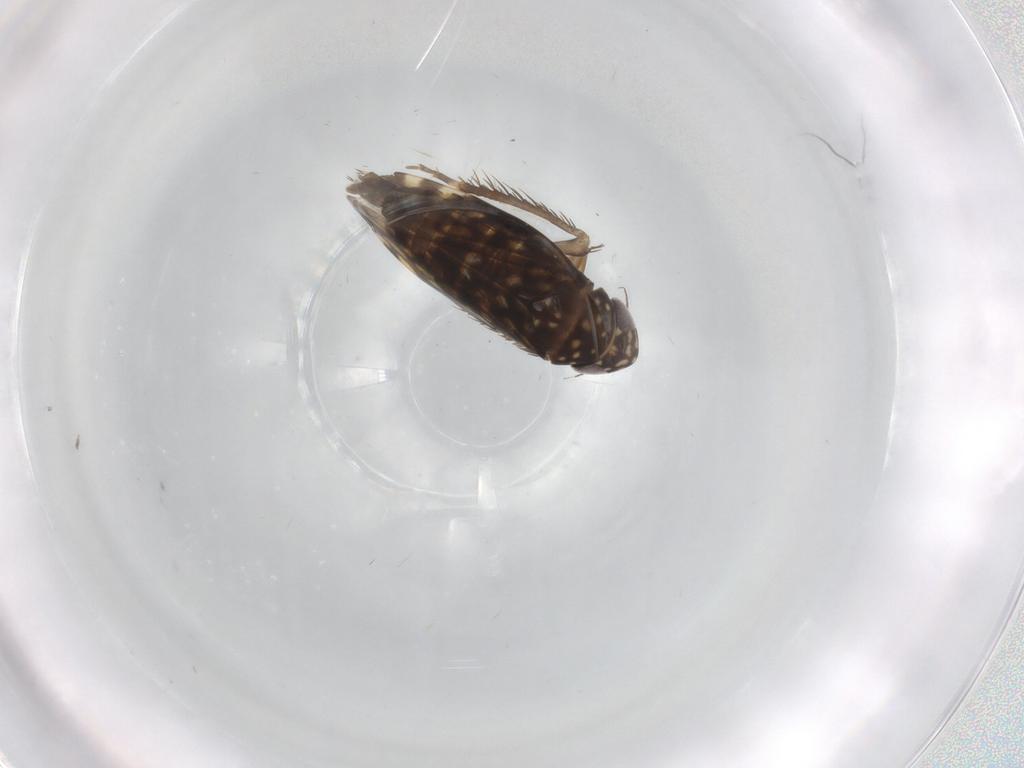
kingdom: Animalia
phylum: Arthropoda
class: Insecta
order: Hemiptera
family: Cicadellidae
